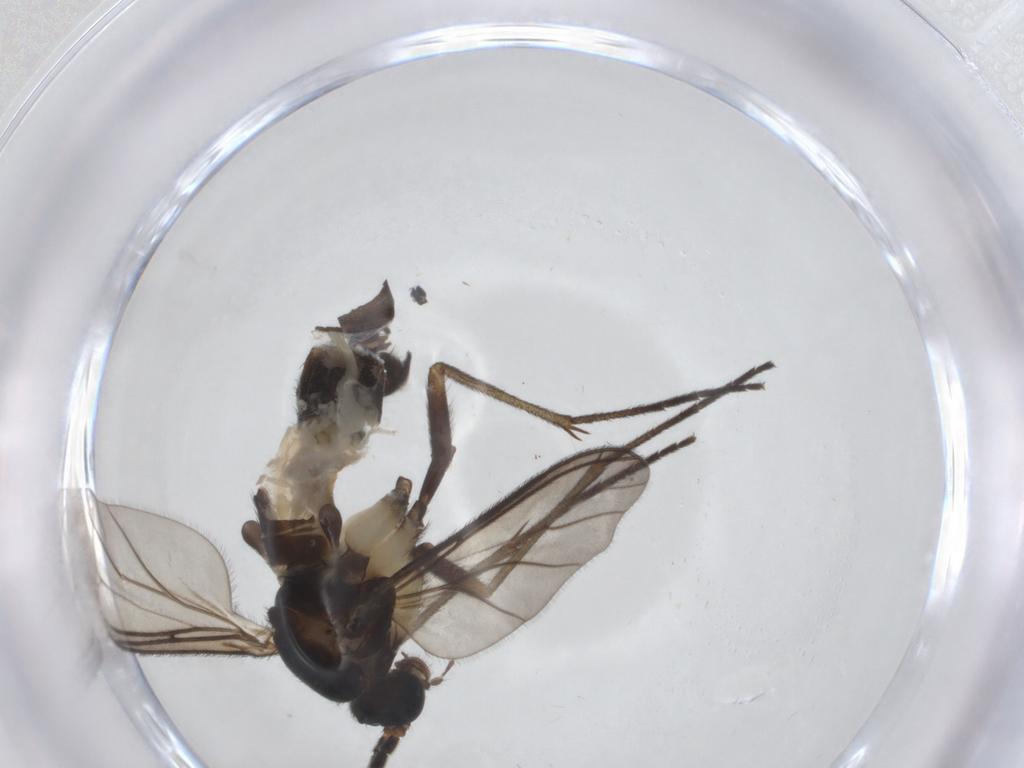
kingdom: Animalia
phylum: Arthropoda
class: Insecta
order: Diptera
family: Sciaridae
